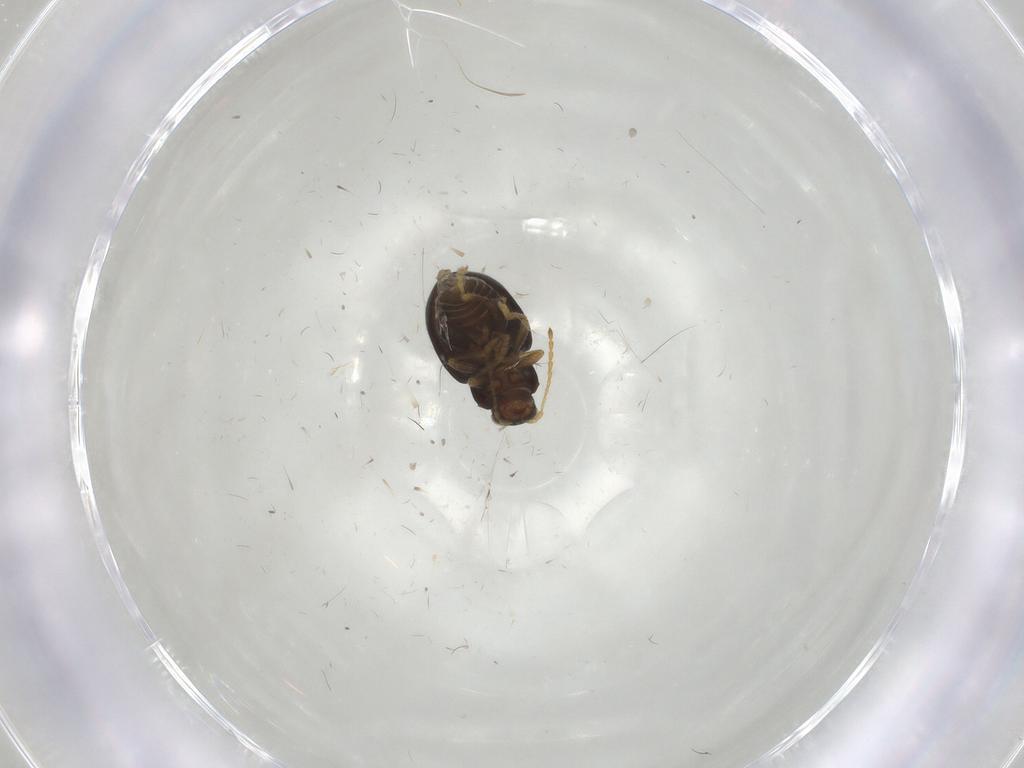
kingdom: Animalia
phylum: Arthropoda
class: Insecta
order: Coleoptera
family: Chrysomelidae
